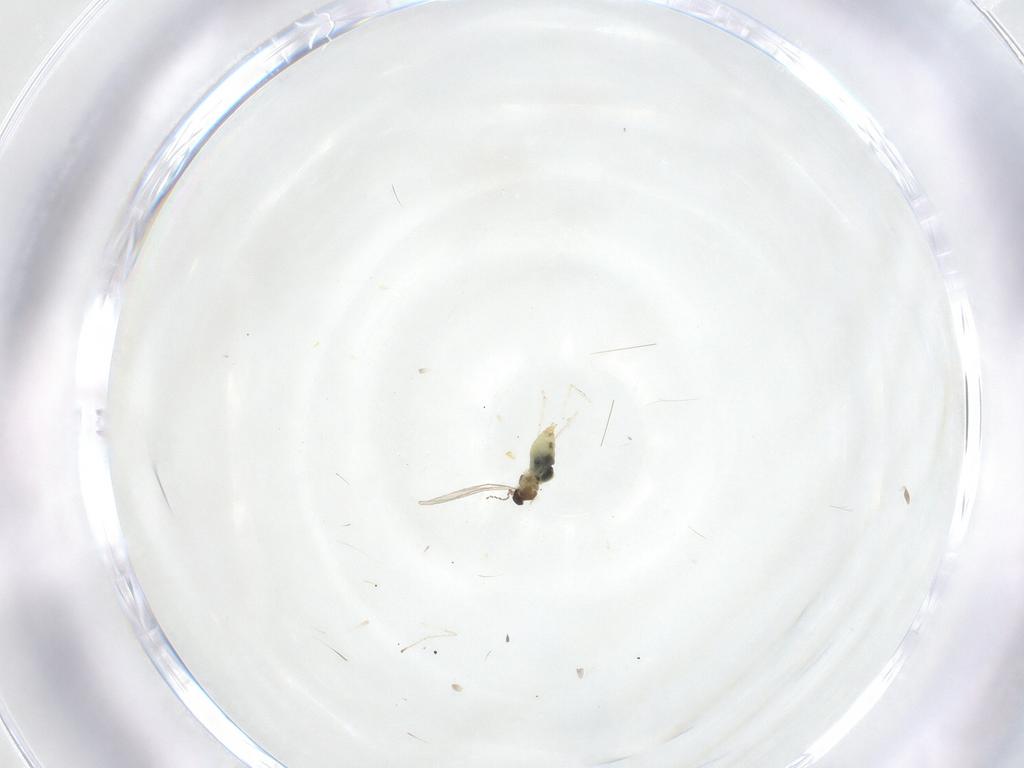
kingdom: Animalia
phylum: Arthropoda
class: Insecta
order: Diptera
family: Cecidomyiidae
